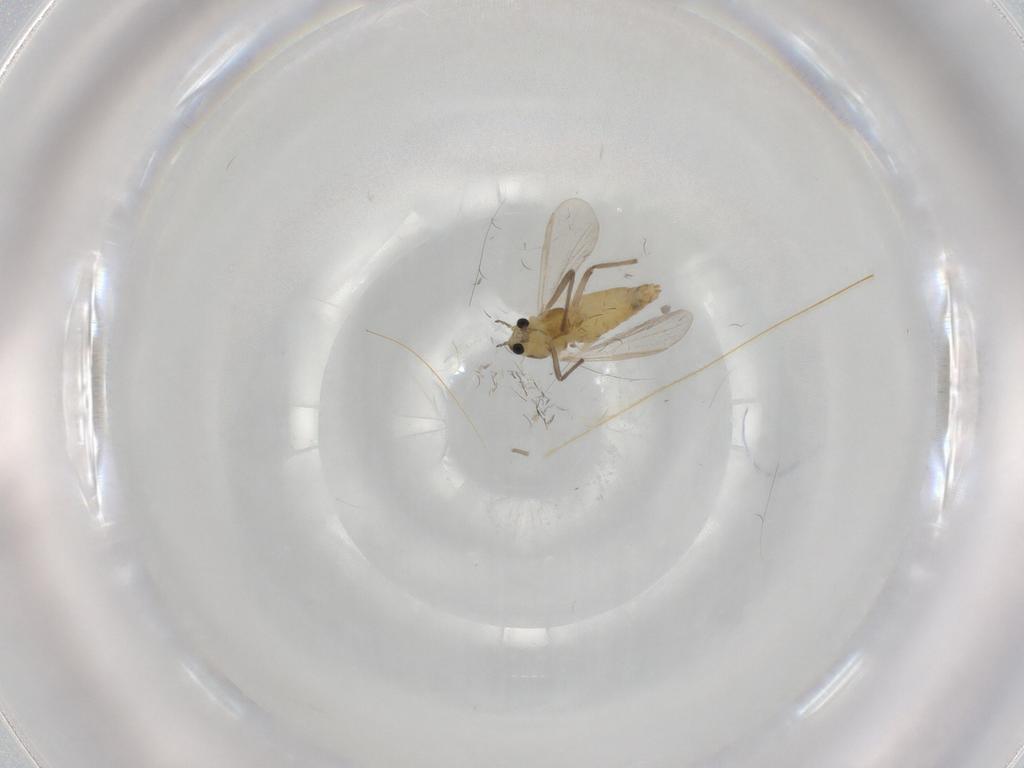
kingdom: Animalia
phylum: Arthropoda
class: Insecta
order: Diptera
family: Chironomidae
